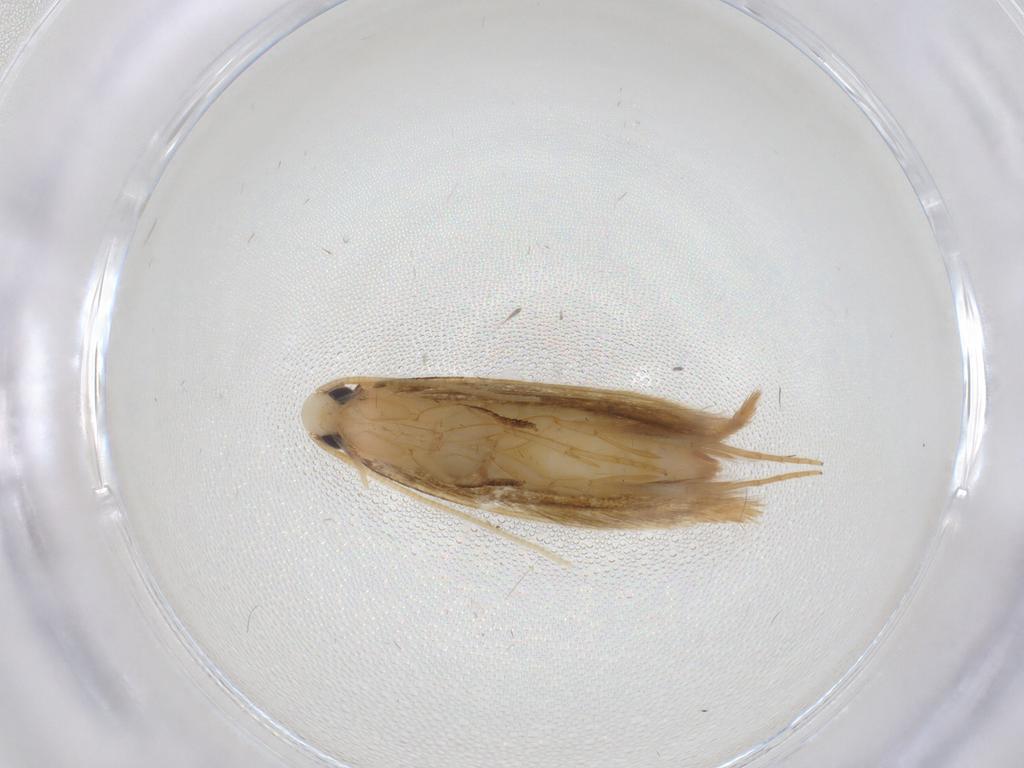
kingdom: Animalia
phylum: Arthropoda
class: Insecta
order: Lepidoptera
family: Tineidae
